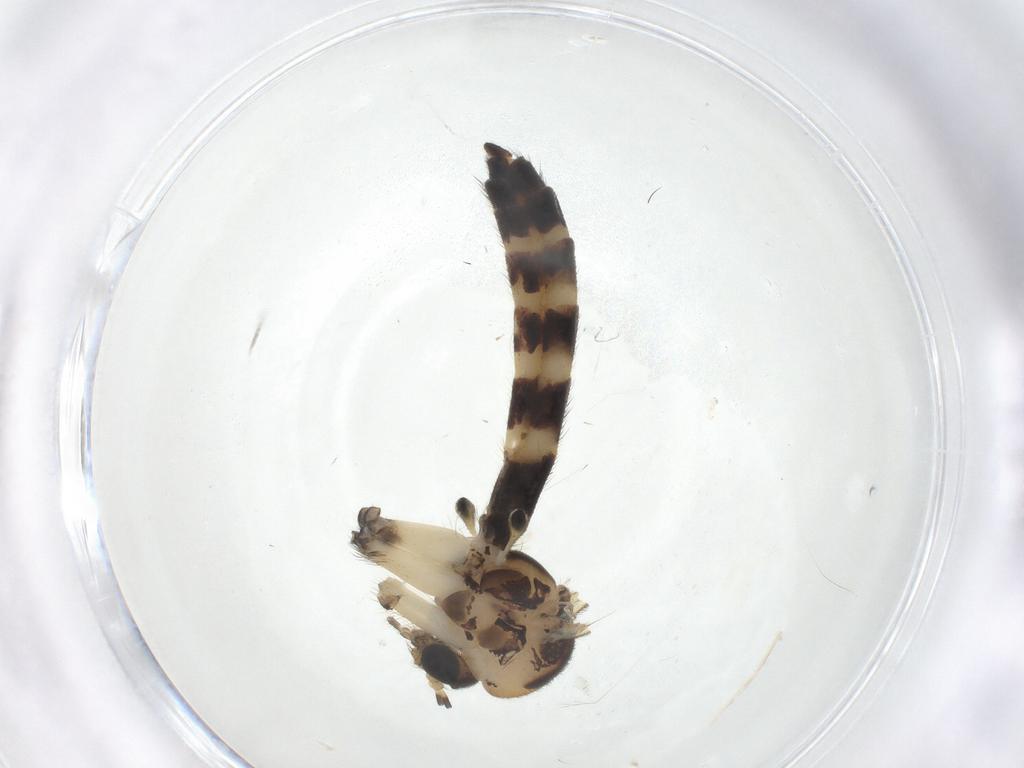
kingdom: Animalia
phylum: Arthropoda
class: Insecta
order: Diptera
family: Mycetophilidae
